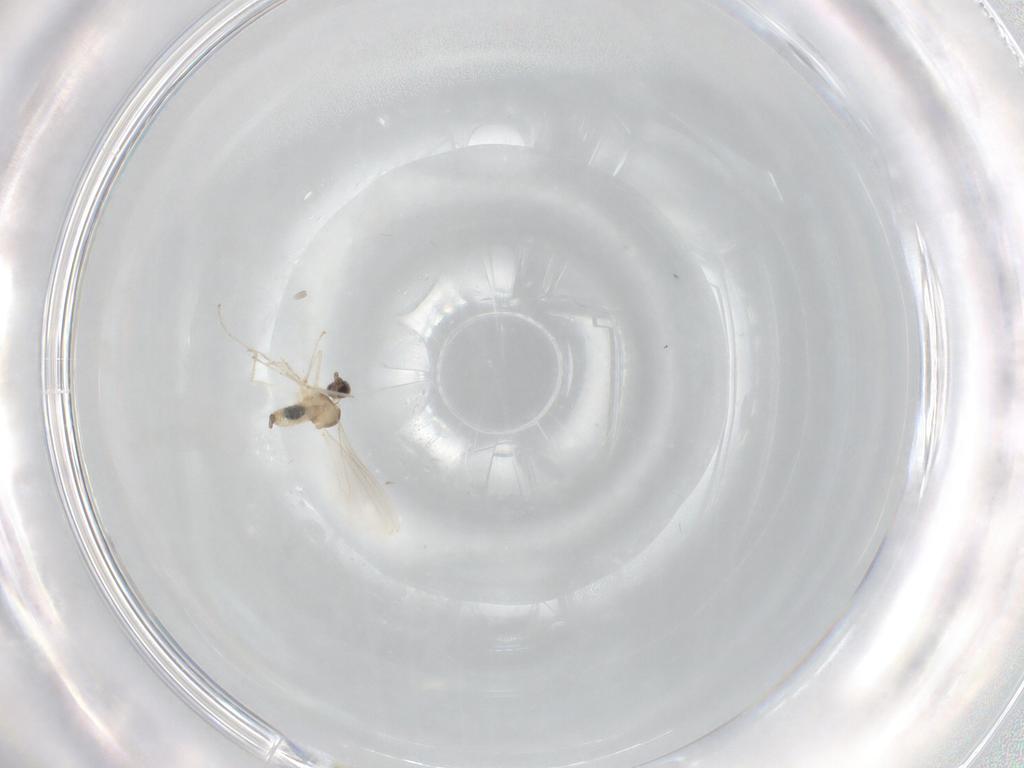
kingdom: Animalia
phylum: Arthropoda
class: Insecta
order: Diptera
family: Cecidomyiidae
